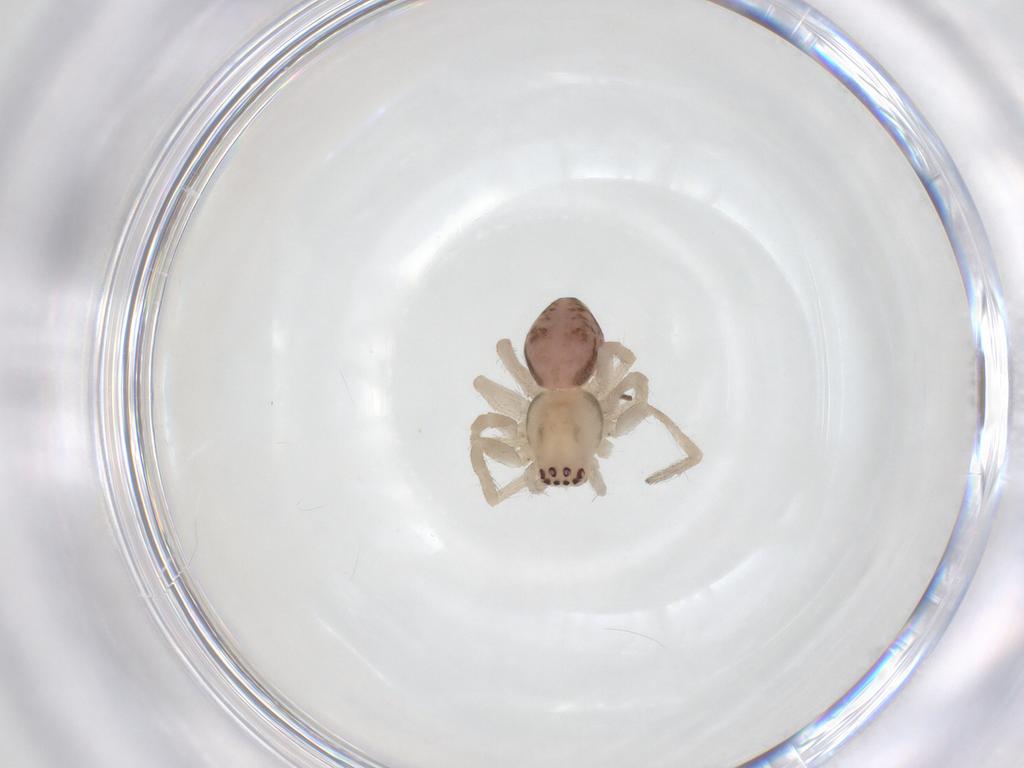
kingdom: Animalia
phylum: Arthropoda
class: Arachnida
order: Araneae
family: Dictynidae
